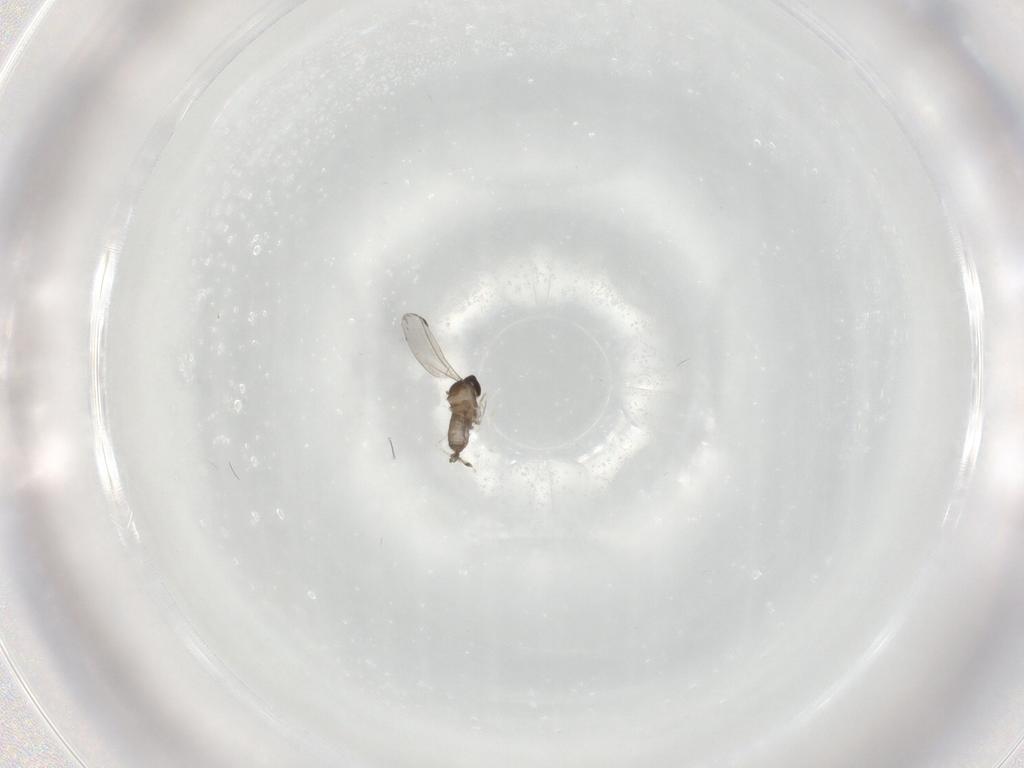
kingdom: Animalia
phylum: Arthropoda
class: Insecta
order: Diptera
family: Cecidomyiidae
